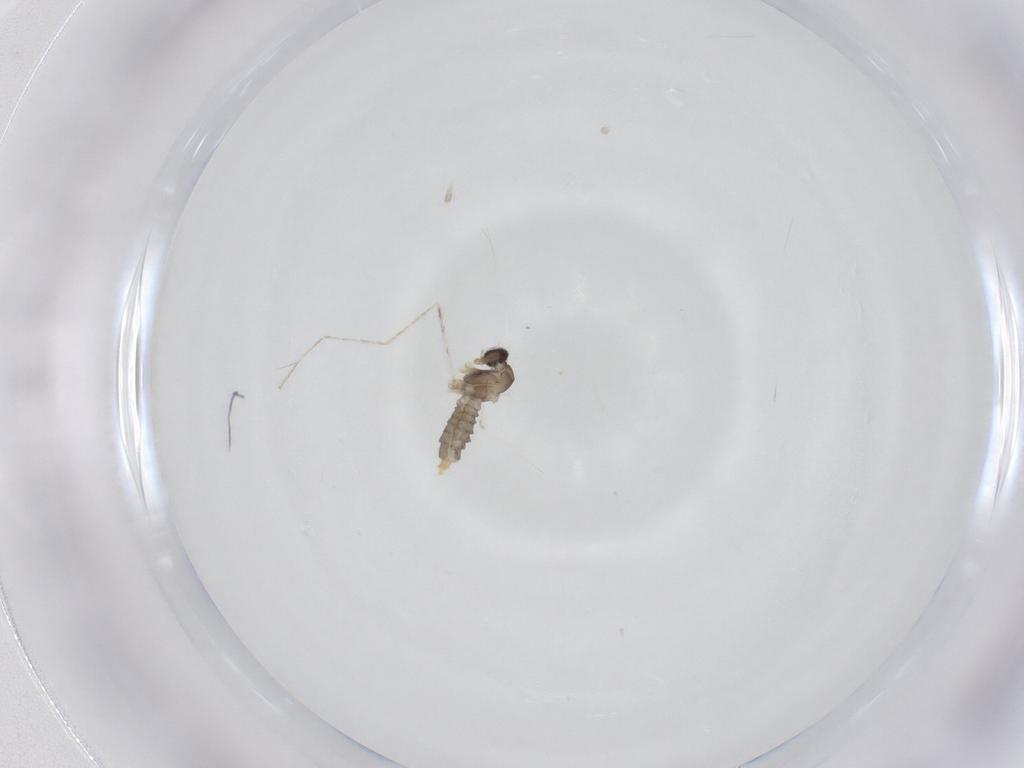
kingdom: Animalia
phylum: Arthropoda
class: Insecta
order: Diptera
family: Cecidomyiidae
